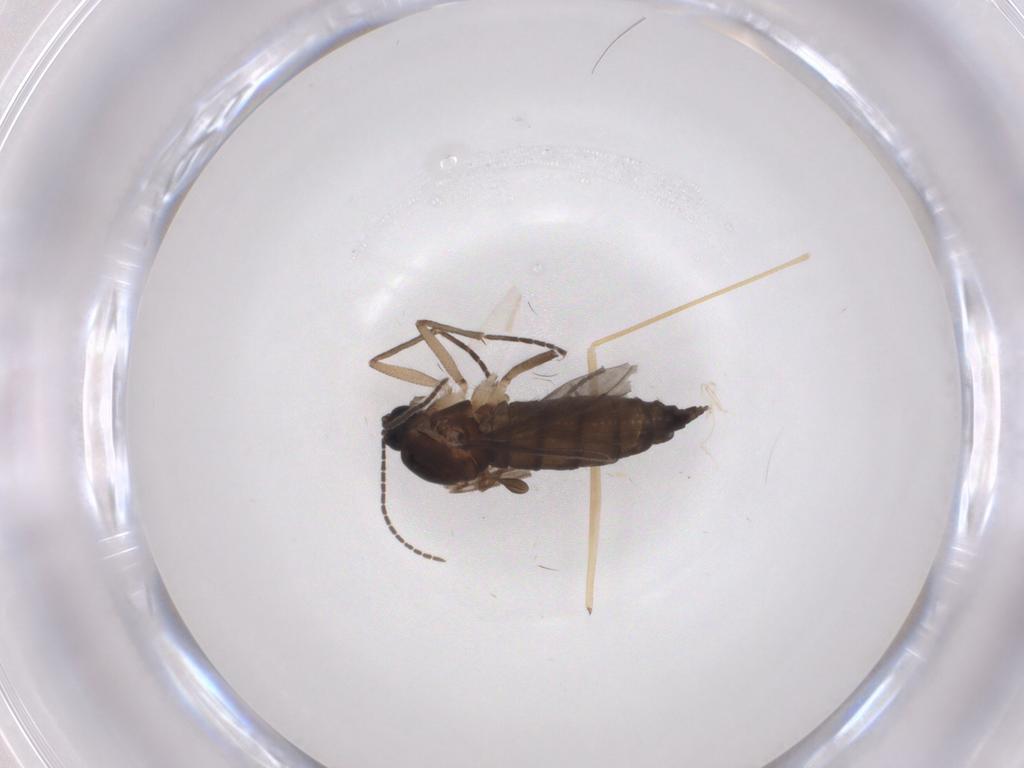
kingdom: Animalia
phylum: Arthropoda
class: Insecta
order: Diptera
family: Sciaridae
